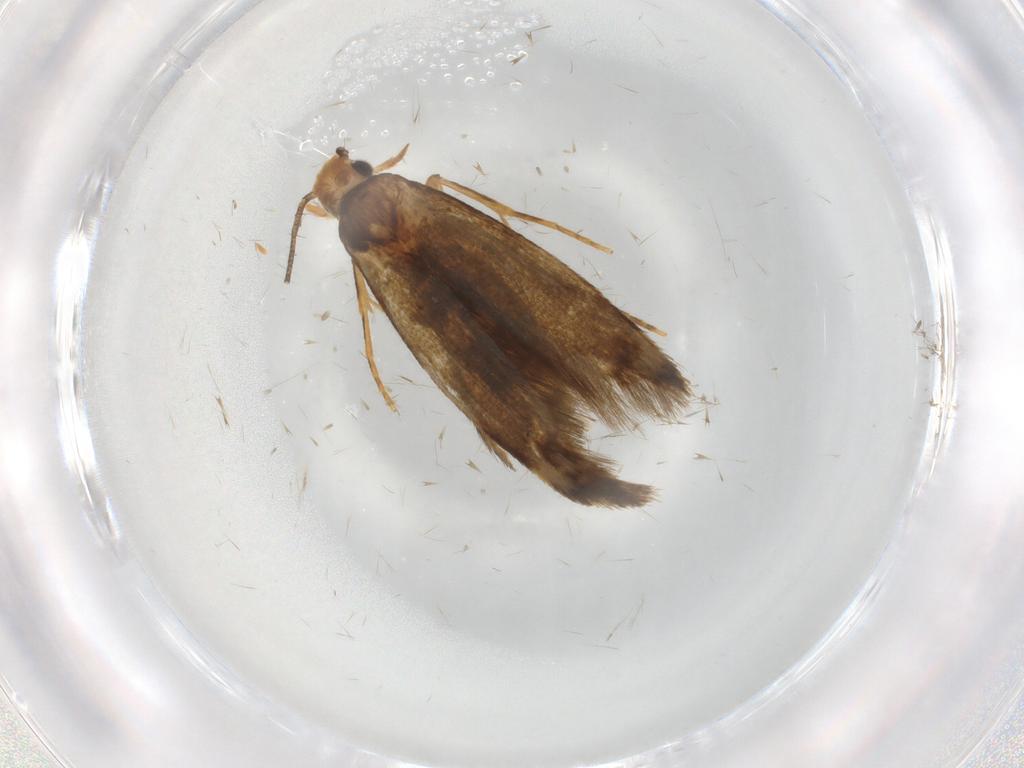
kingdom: Animalia
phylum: Arthropoda
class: Insecta
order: Lepidoptera
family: Tineidae
